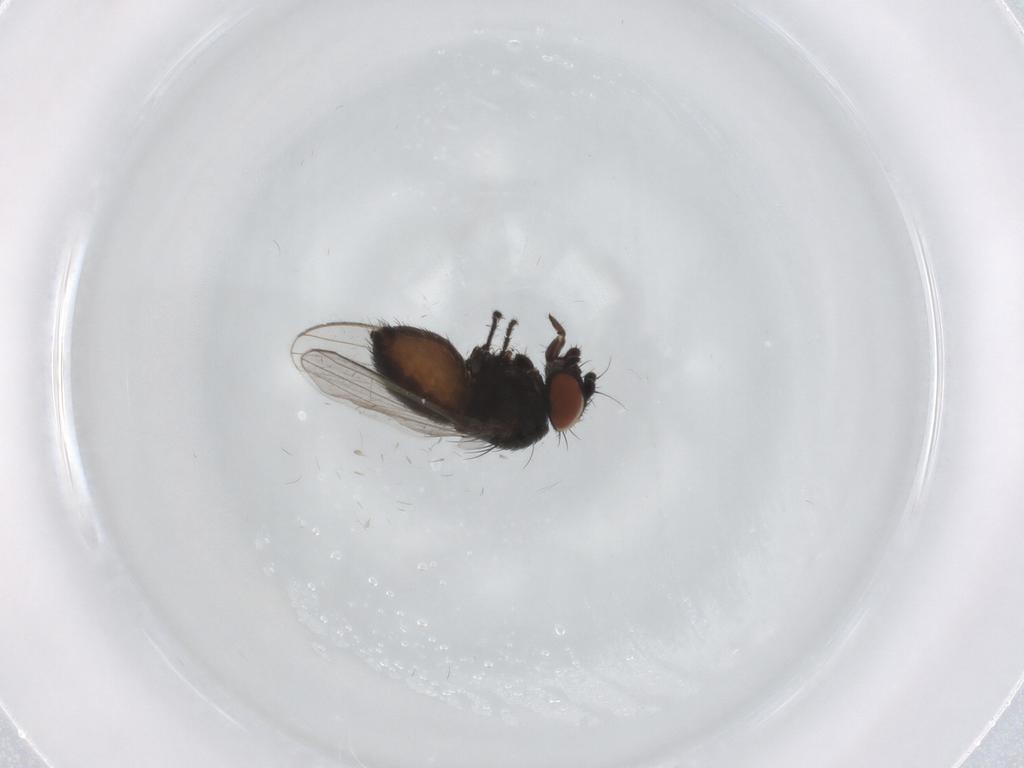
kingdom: Animalia
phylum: Arthropoda
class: Insecta
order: Diptera
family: Milichiidae
